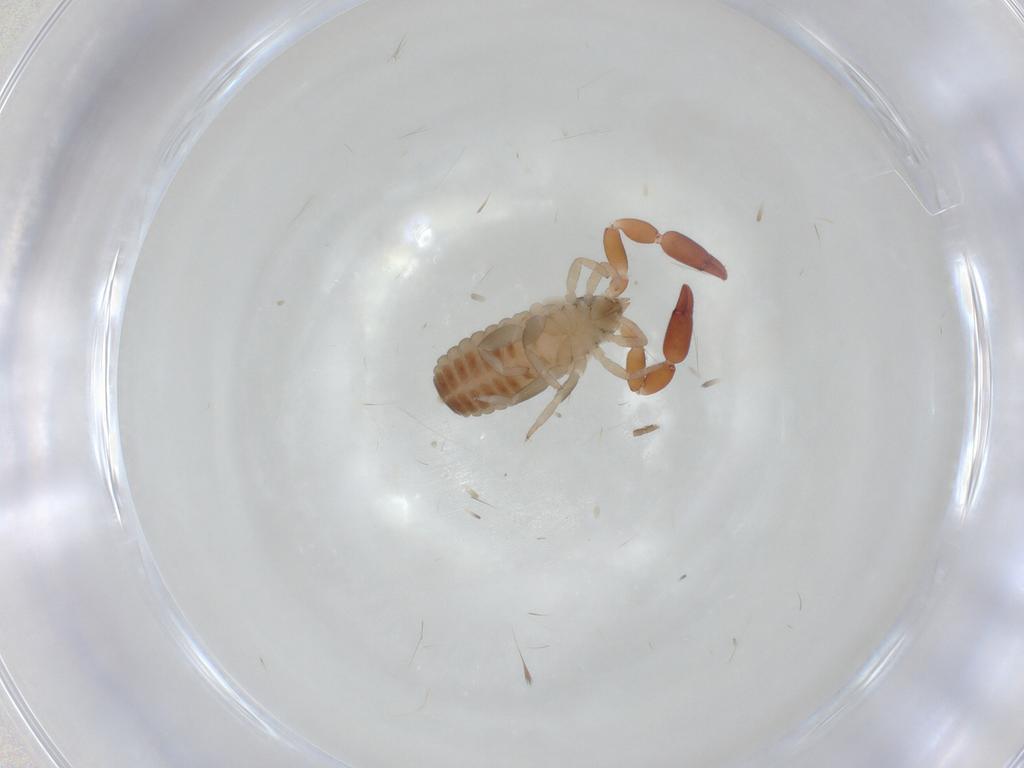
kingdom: Animalia
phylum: Arthropoda
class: Arachnida
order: Pseudoscorpiones
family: Withiidae
